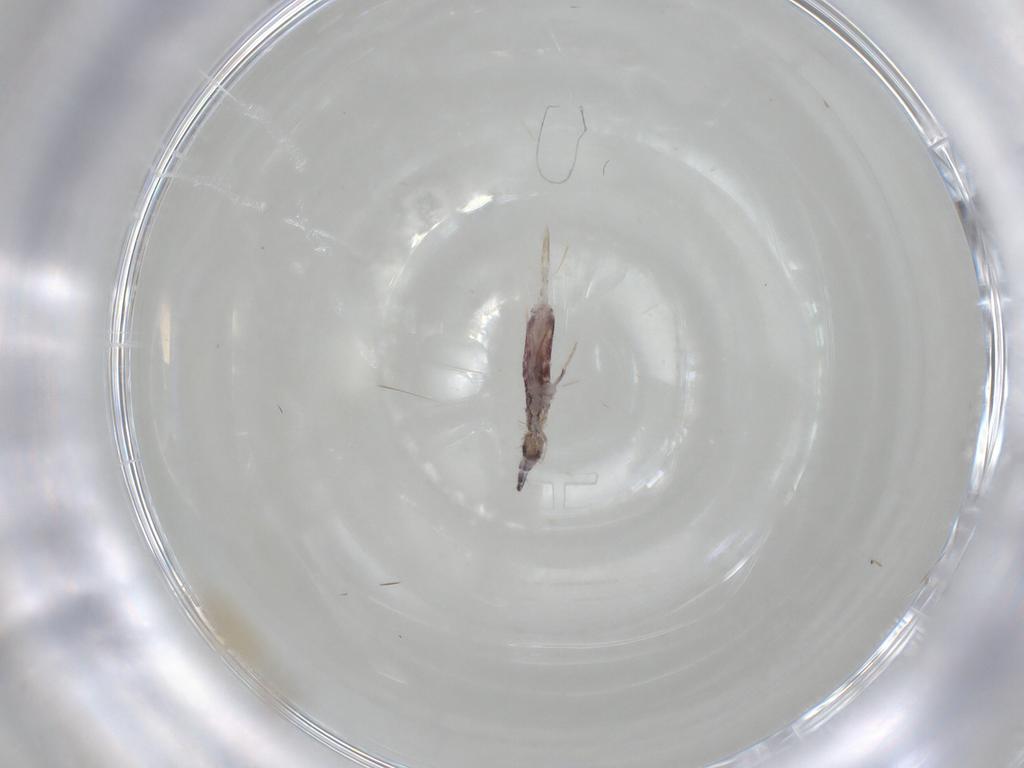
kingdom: Animalia
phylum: Arthropoda
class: Collembola
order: Entomobryomorpha
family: Entomobryidae
